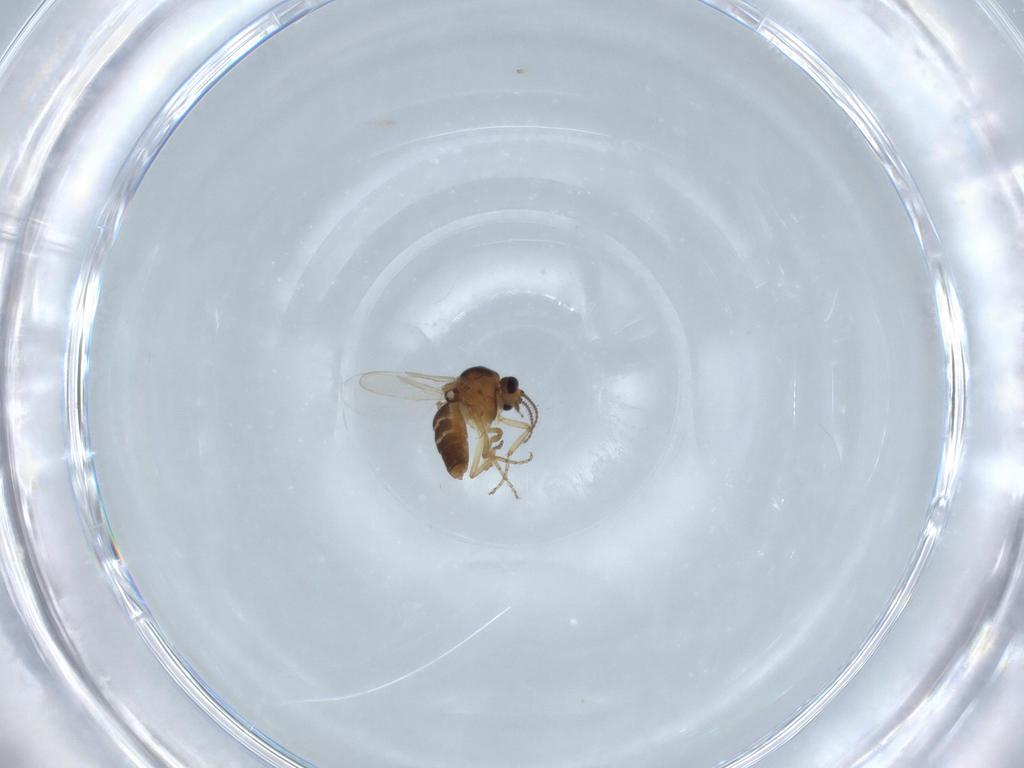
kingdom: Animalia
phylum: Arthropoda
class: Insecta
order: Diptera
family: Ceratopogonidae
